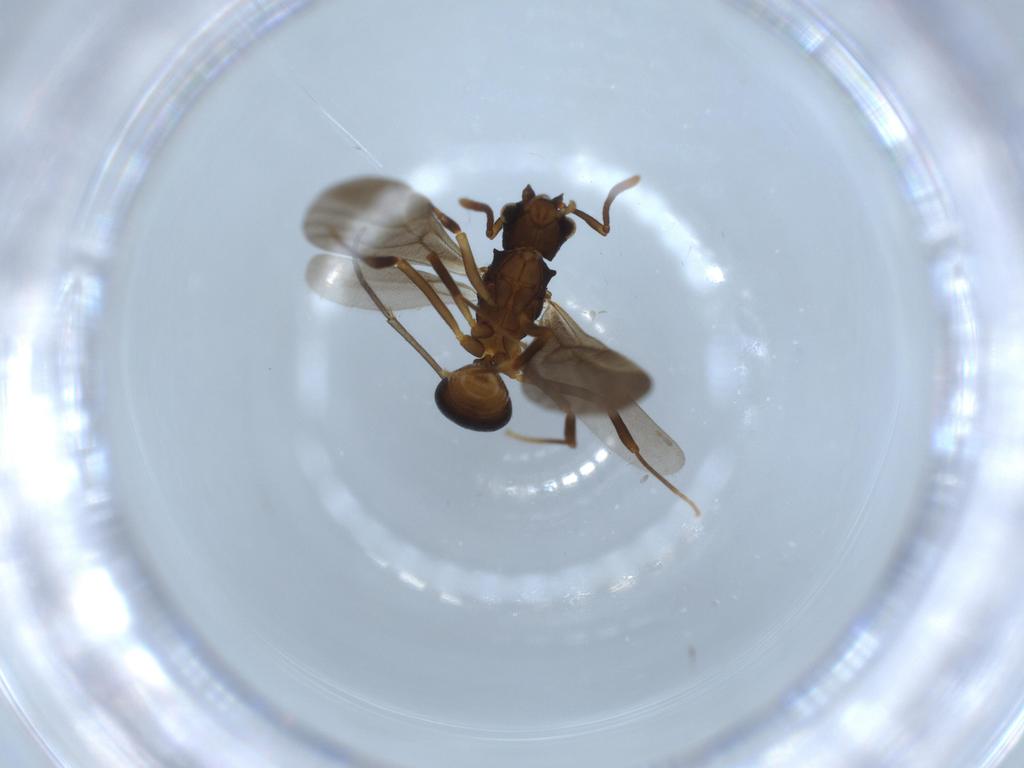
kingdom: Animalia
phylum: Arthropoda
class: Insecta
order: Hymenoptera
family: Formicidae
